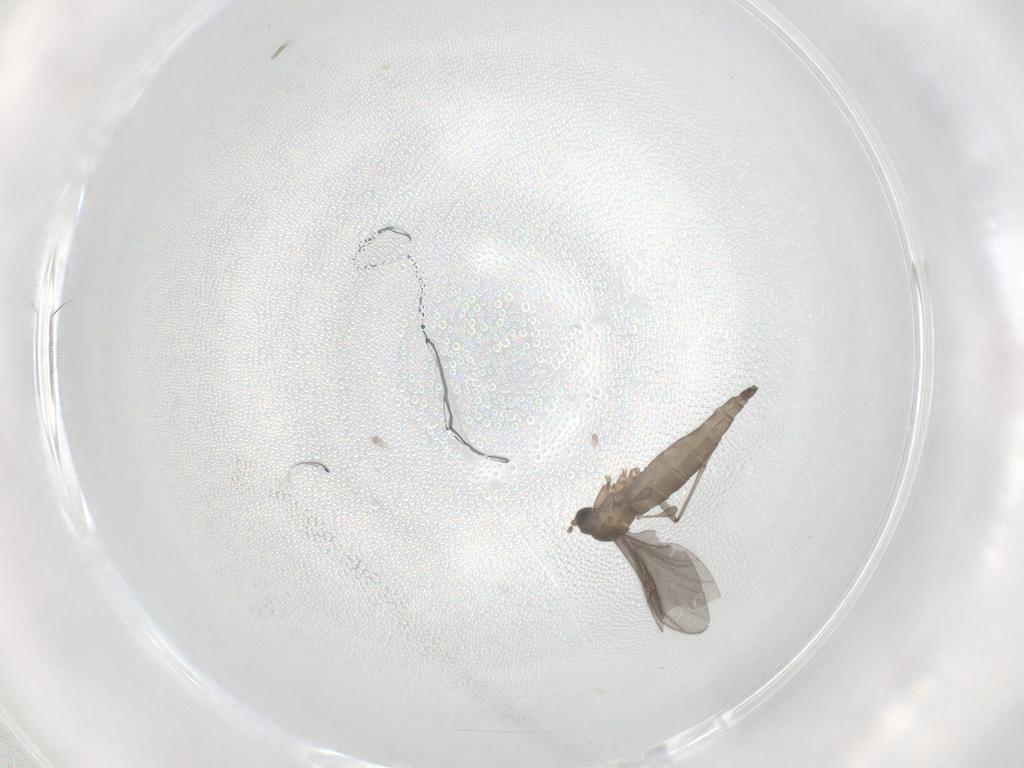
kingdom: Animalia
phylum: Arthropoda
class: Insecta
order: Diptera
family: Sciaridae
